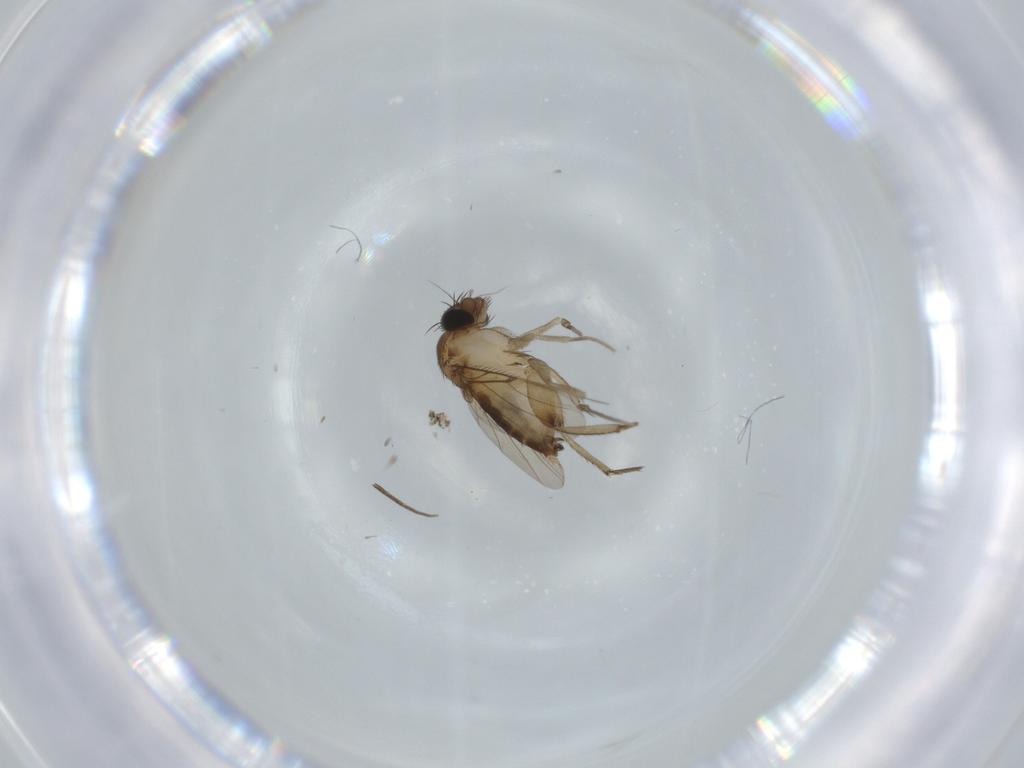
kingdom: Animalia
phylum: Arthropoda
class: Insecta
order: Diptera
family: Phoridae
